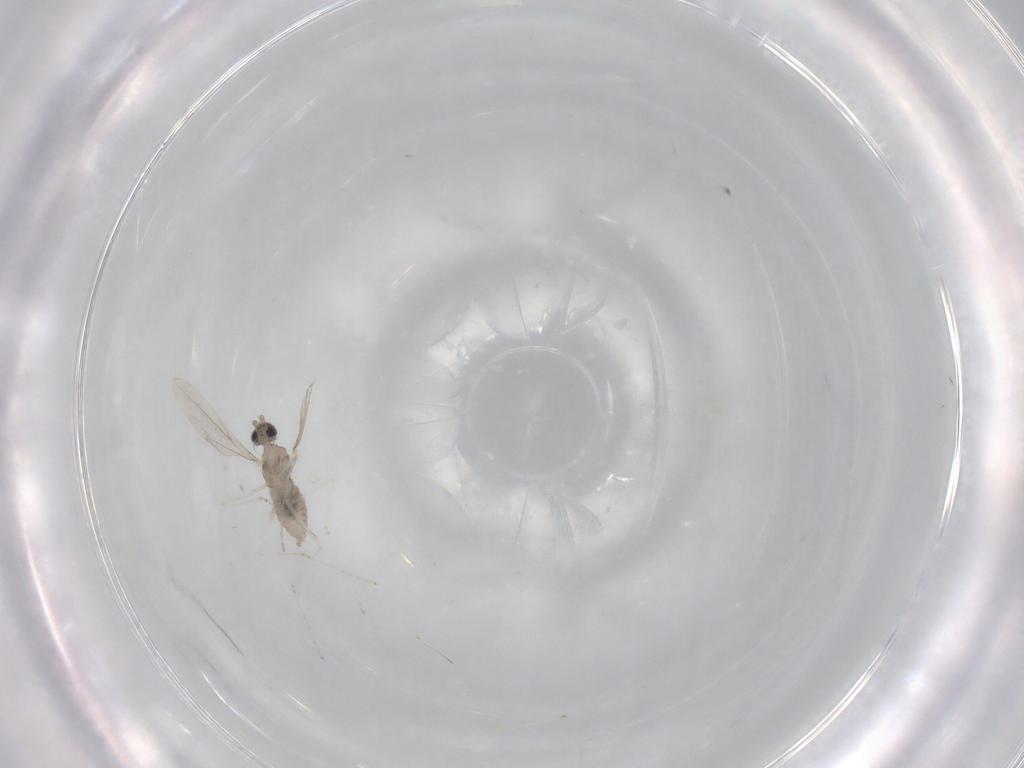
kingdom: Animalia
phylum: Arthropoda
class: Insecta
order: Diptera
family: Cecidomyiidae
